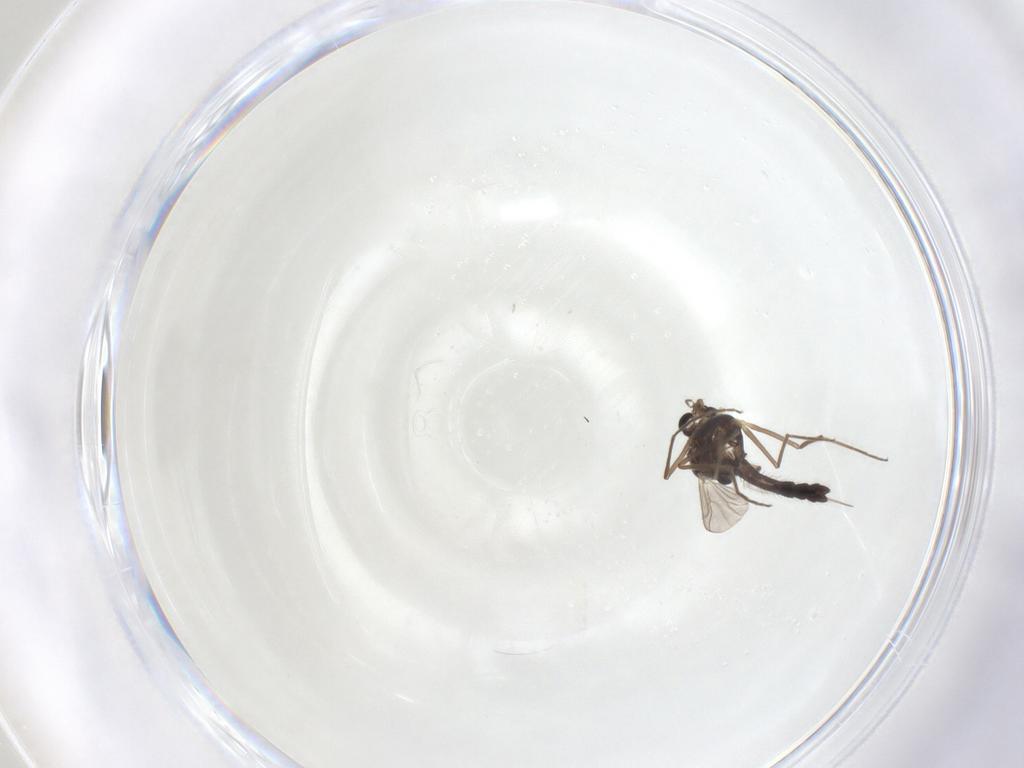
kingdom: Animalia
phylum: Arthropoda
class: Insecta
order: Diptera
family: Chironomidae
